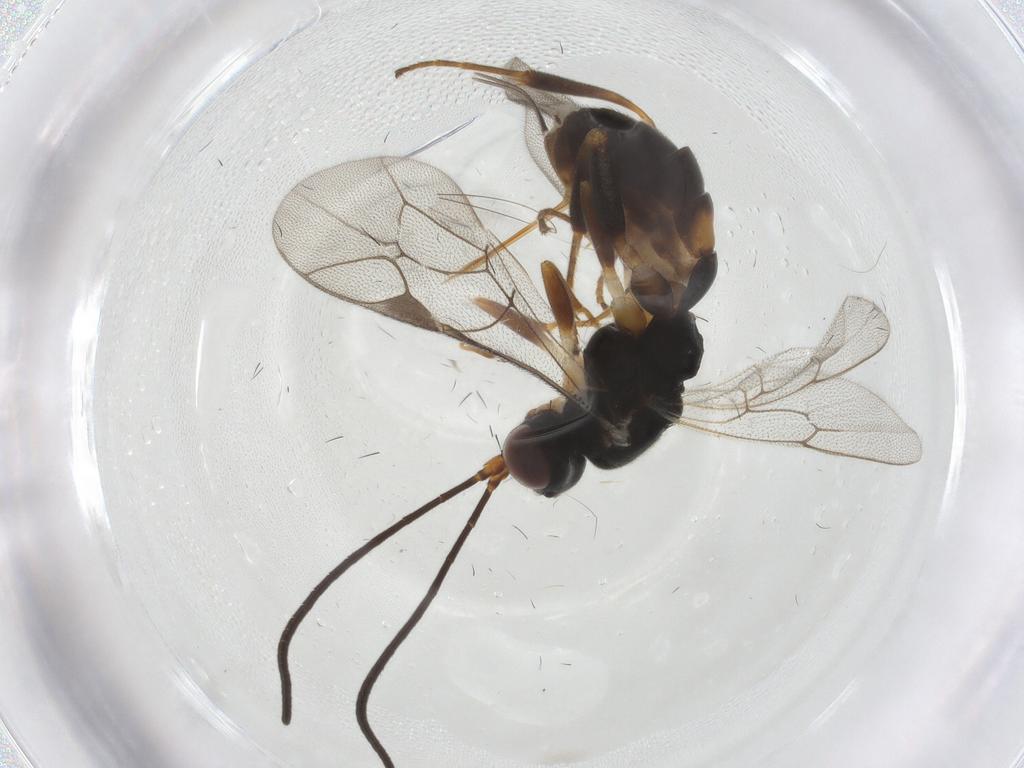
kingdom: Animalia
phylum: Arthropoda
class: Insecta
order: Hymenoptera
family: Ichneumonidae
